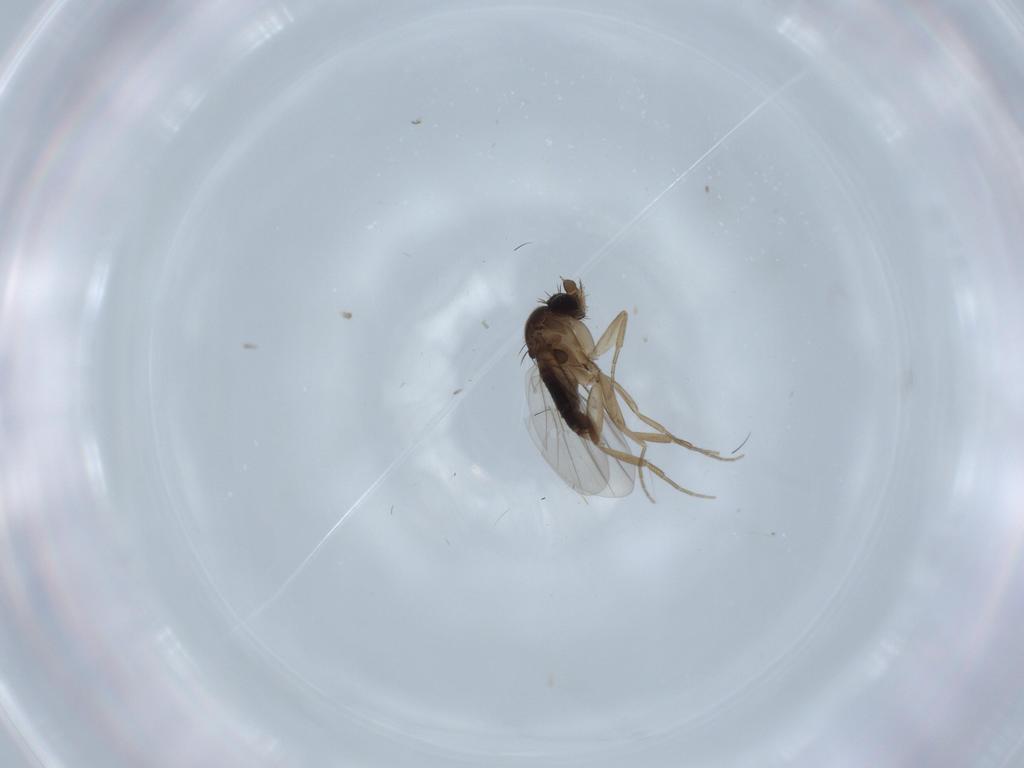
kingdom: Animalia
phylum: Arthropoda
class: Insecta
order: Diptera
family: Phoridae
